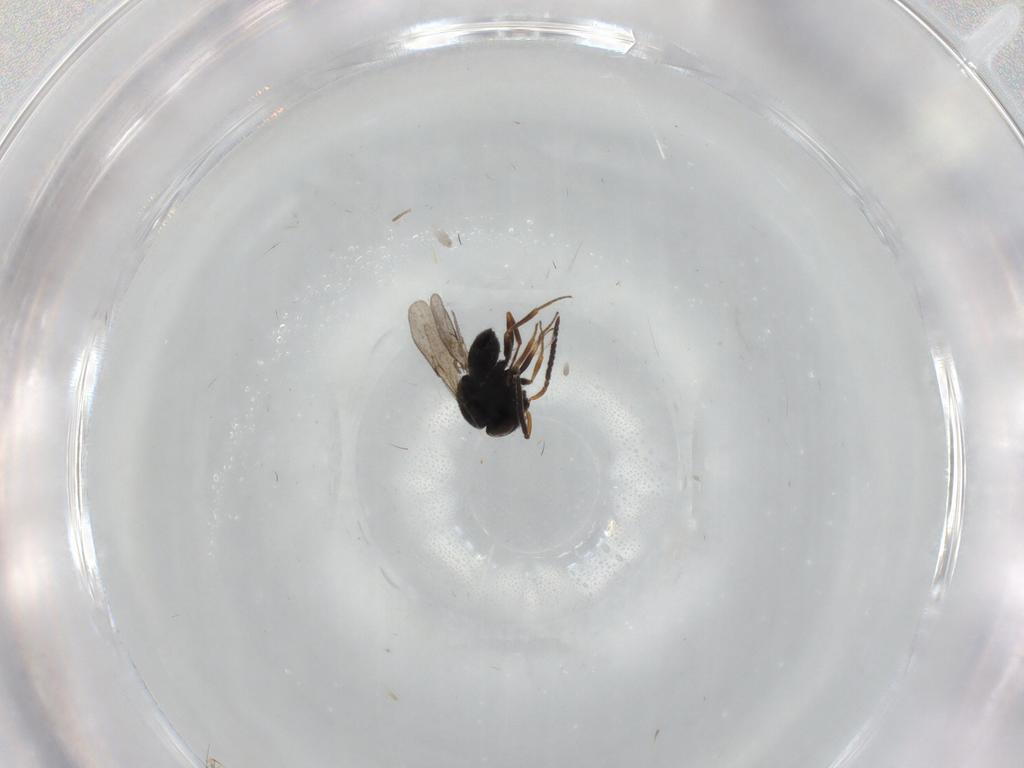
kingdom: Animalia
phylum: Arthropoda
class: Insecta
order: Hymenoptera
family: Scelionidae
